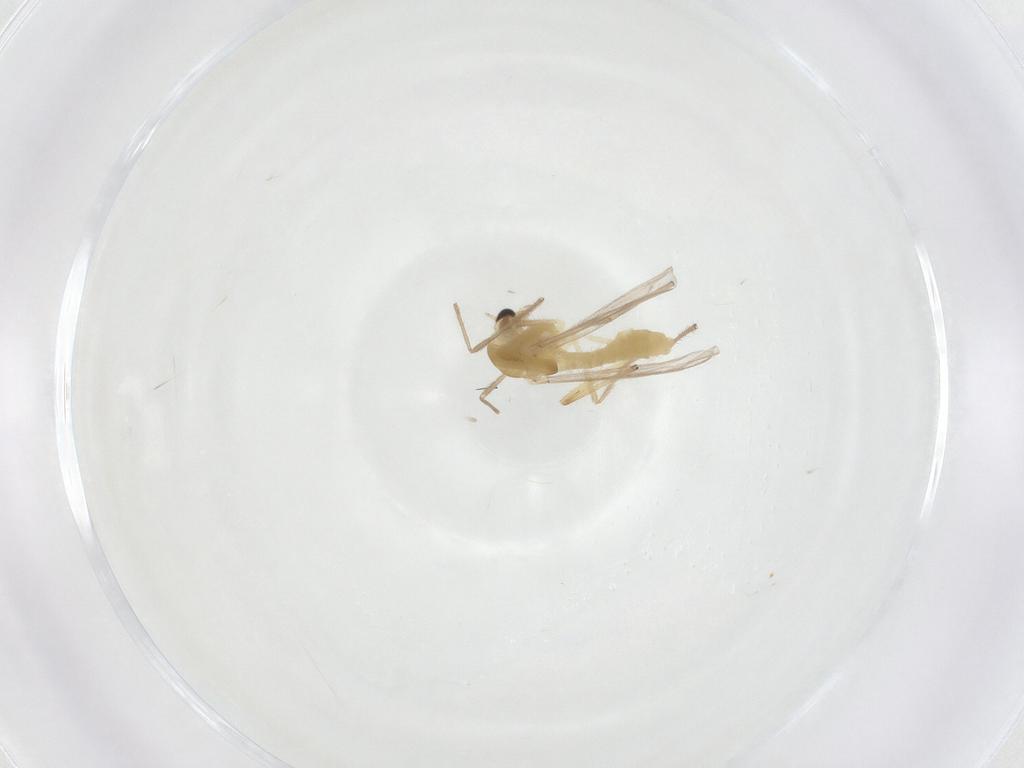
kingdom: Animalia
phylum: Arthropoda
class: Insecta
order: Diptera
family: Chironomidae
